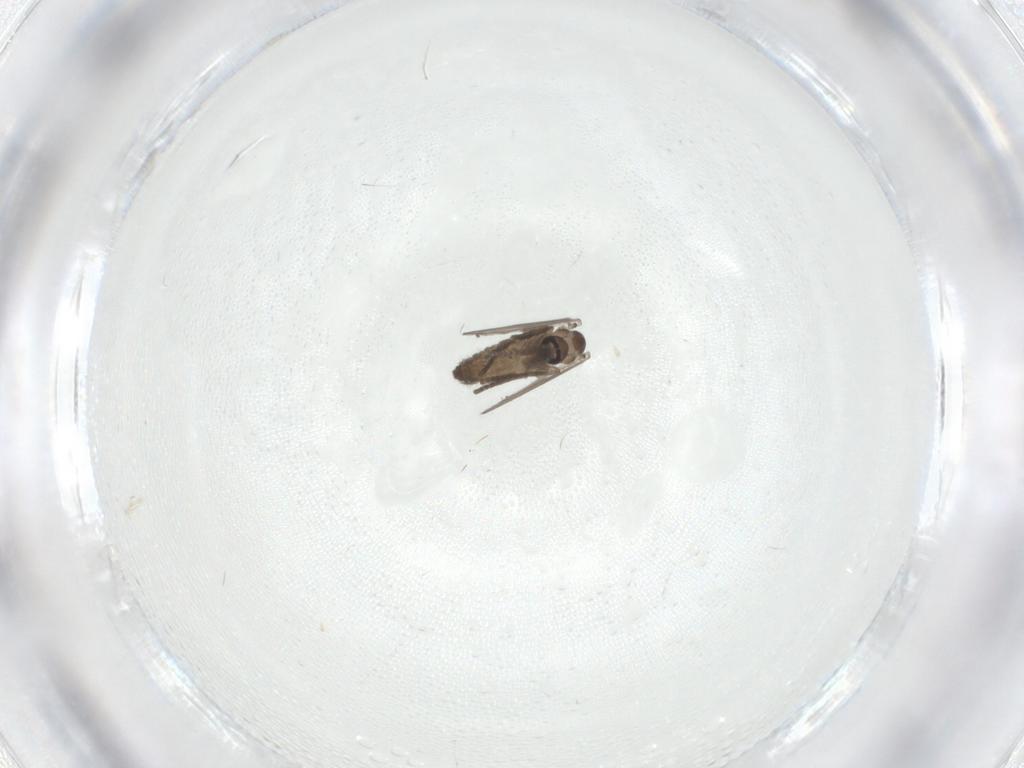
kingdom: Animalia
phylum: Arthropoda
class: Insecta
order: Diptera
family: Psychodidae
